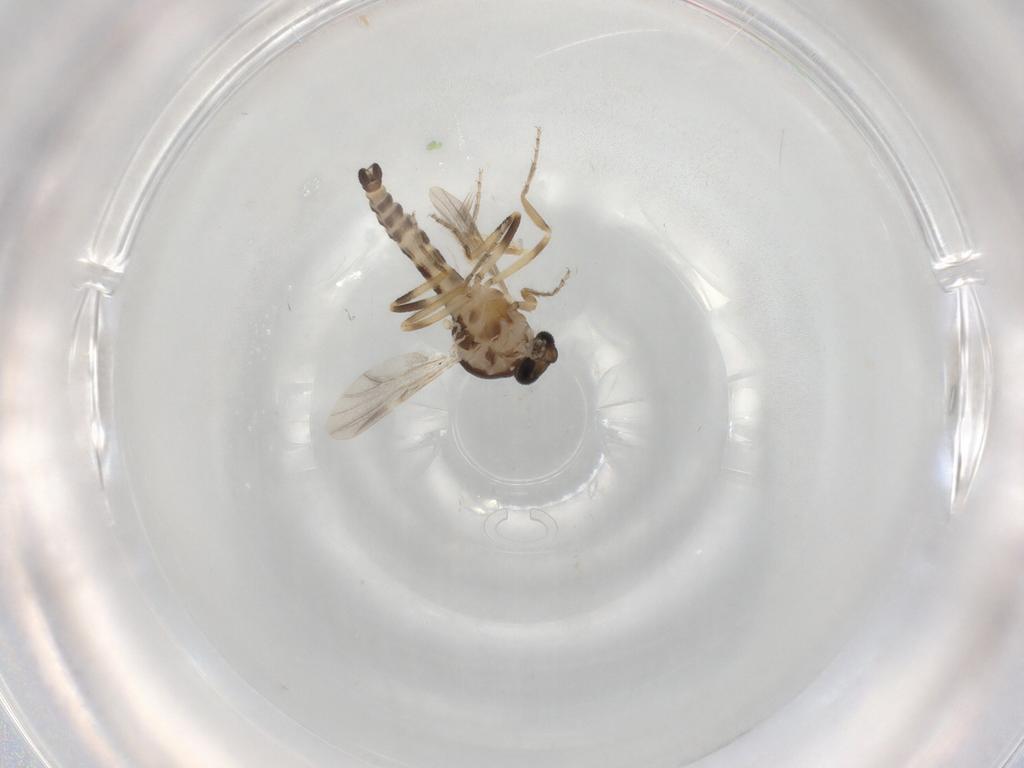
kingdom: Animalia
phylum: Arthropoda
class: Insecta
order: Diptera
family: Ceratopogonidae
